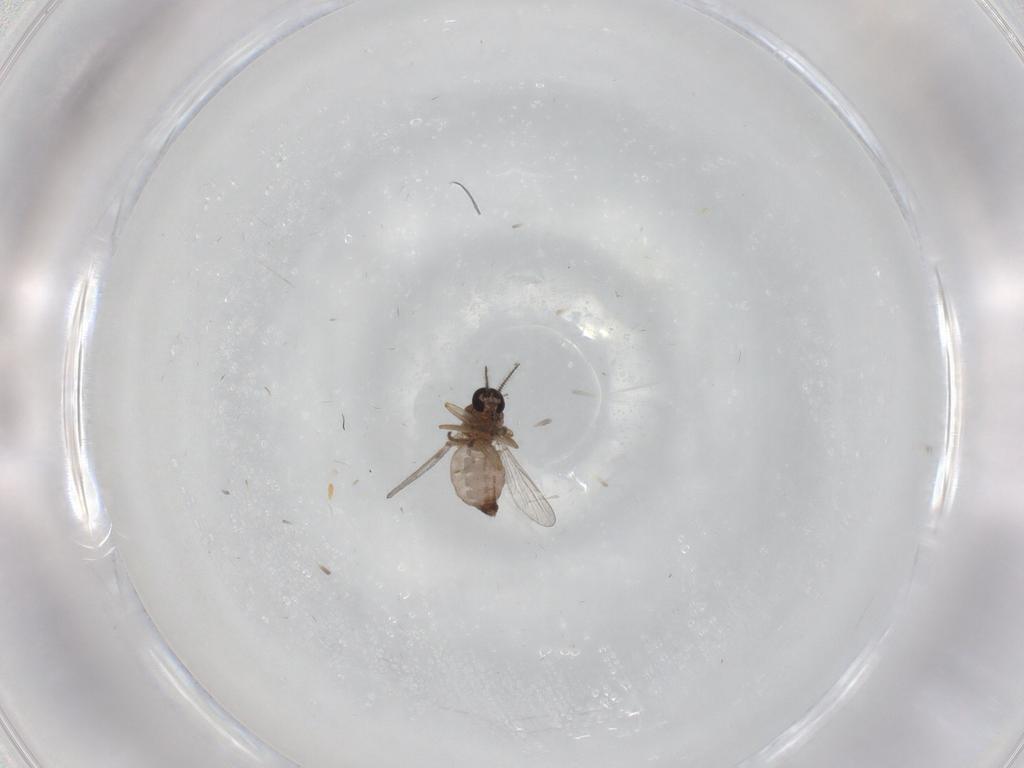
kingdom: Animalia
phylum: Arthropoda
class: Insecta
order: Diptera
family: Chironomidae
